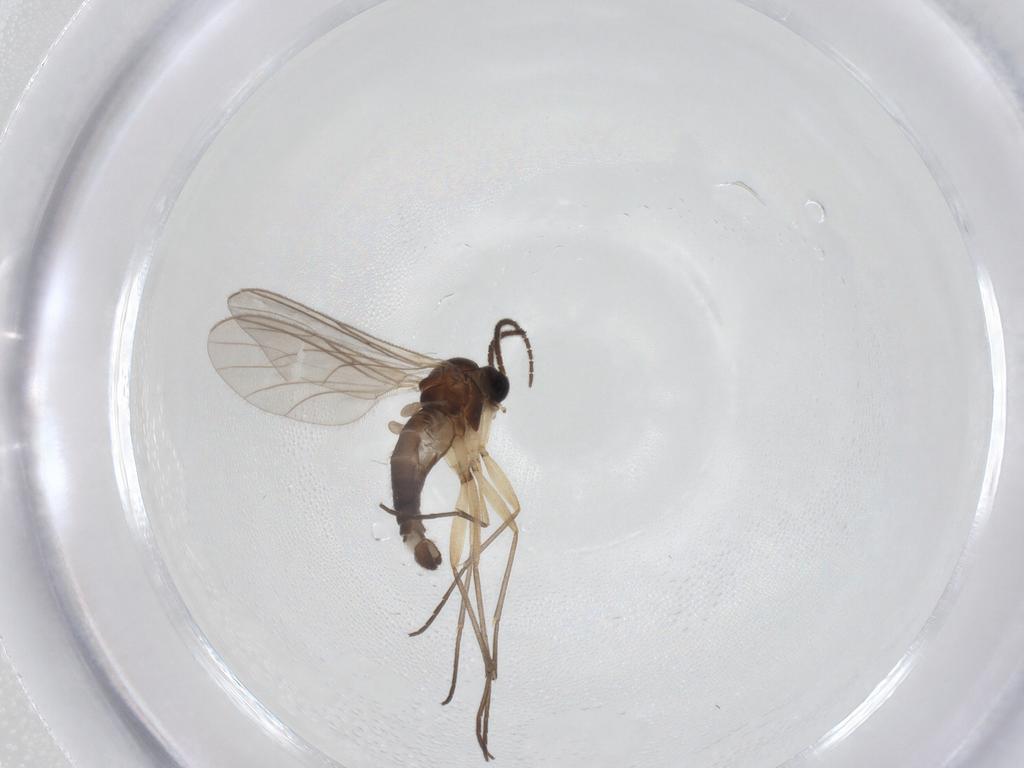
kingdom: Animalia
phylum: Arthropoda
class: Insecta
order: Diptera
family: Sciaridae
